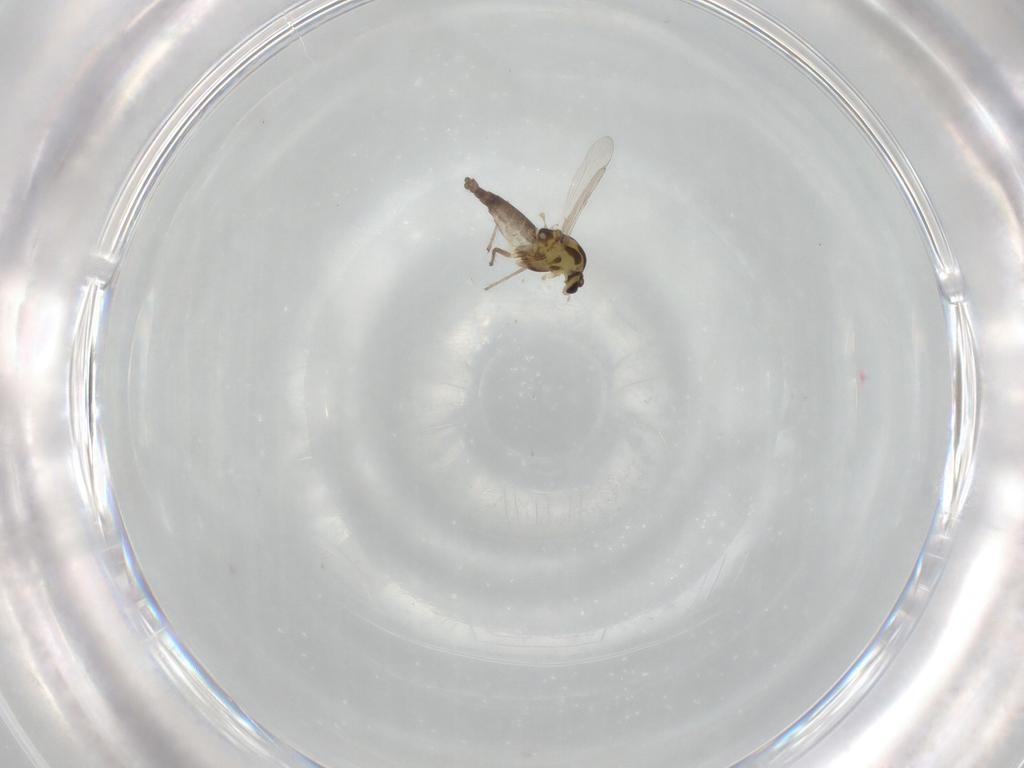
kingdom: Animalia
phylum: Arthropoda
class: Insecta
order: Diptera
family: Chironomidae
